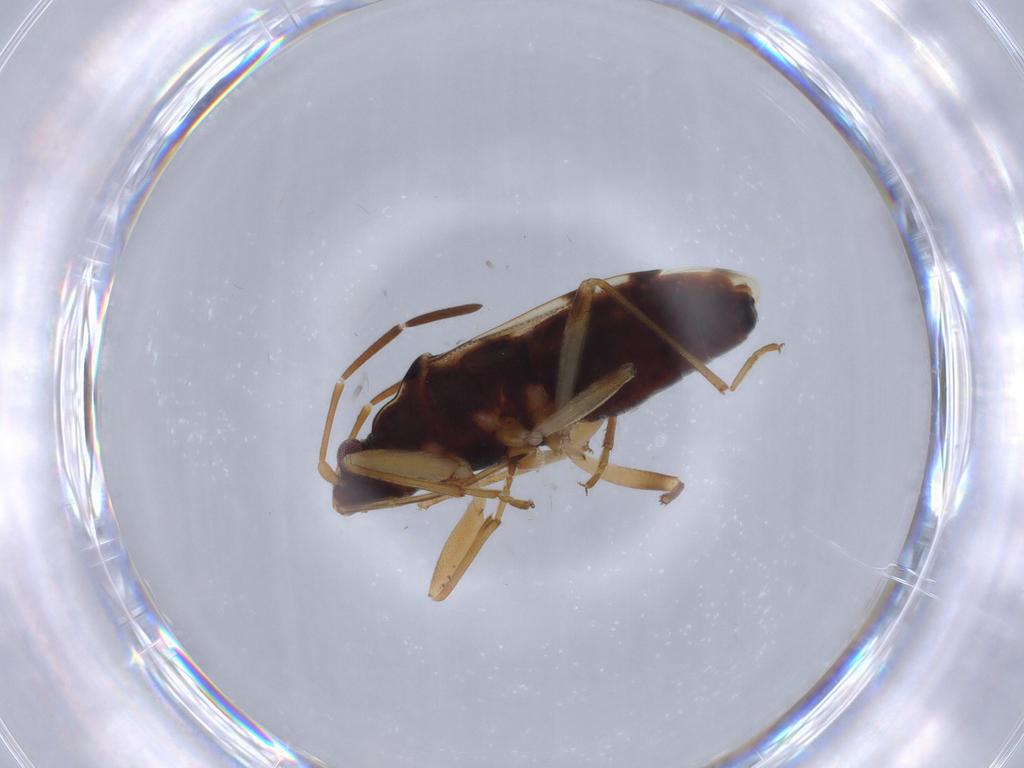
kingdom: Animalia
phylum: Arthropoda
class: Insecta
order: Hemiptera
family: Rhyparochromidae
